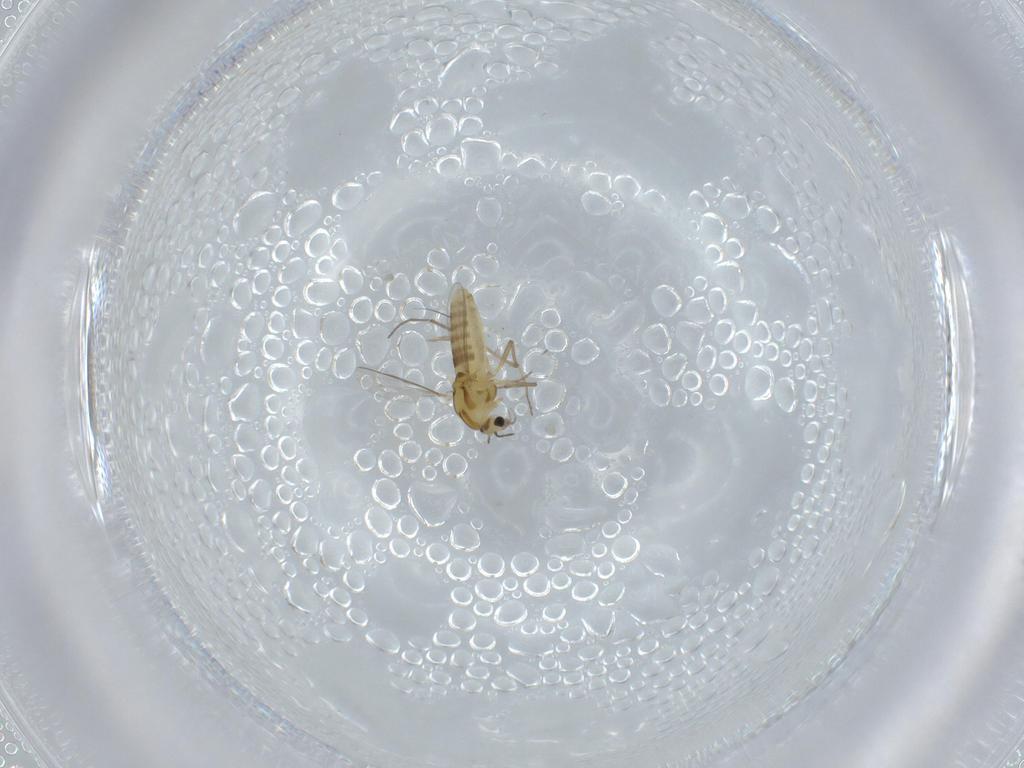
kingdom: Animalia
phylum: Arthropoda
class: Insecta
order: Diptera
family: Chironomidae
